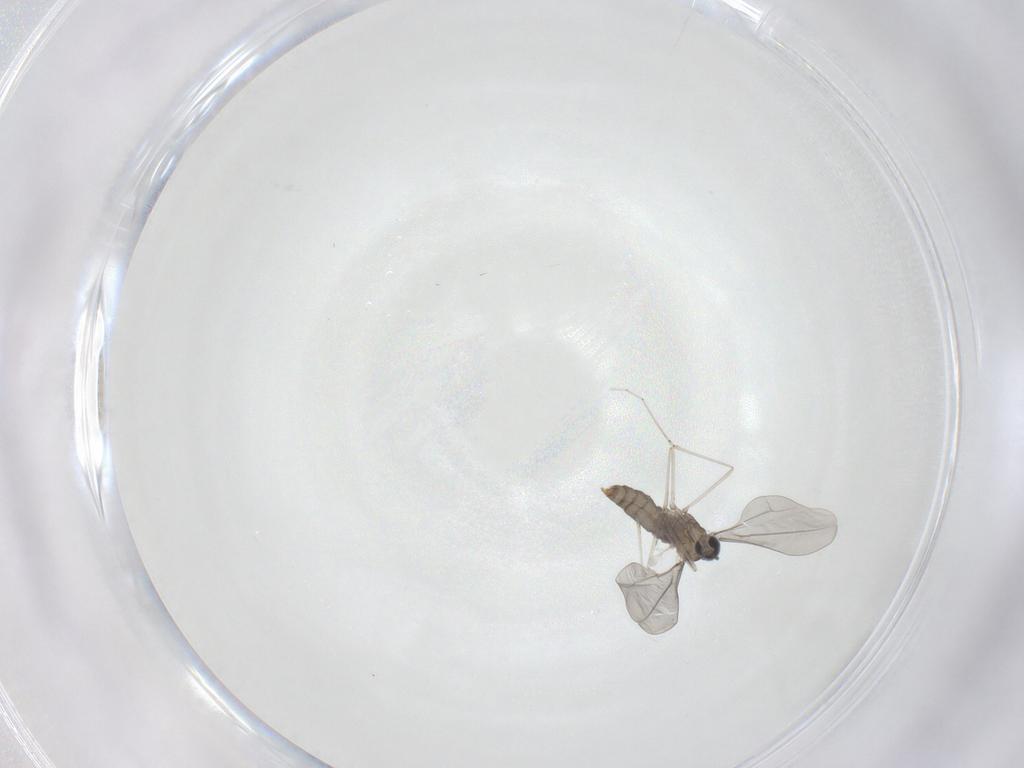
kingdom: Animalia
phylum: Arthropoda
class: Insecta
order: Diptera
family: Cecidomyiidae
